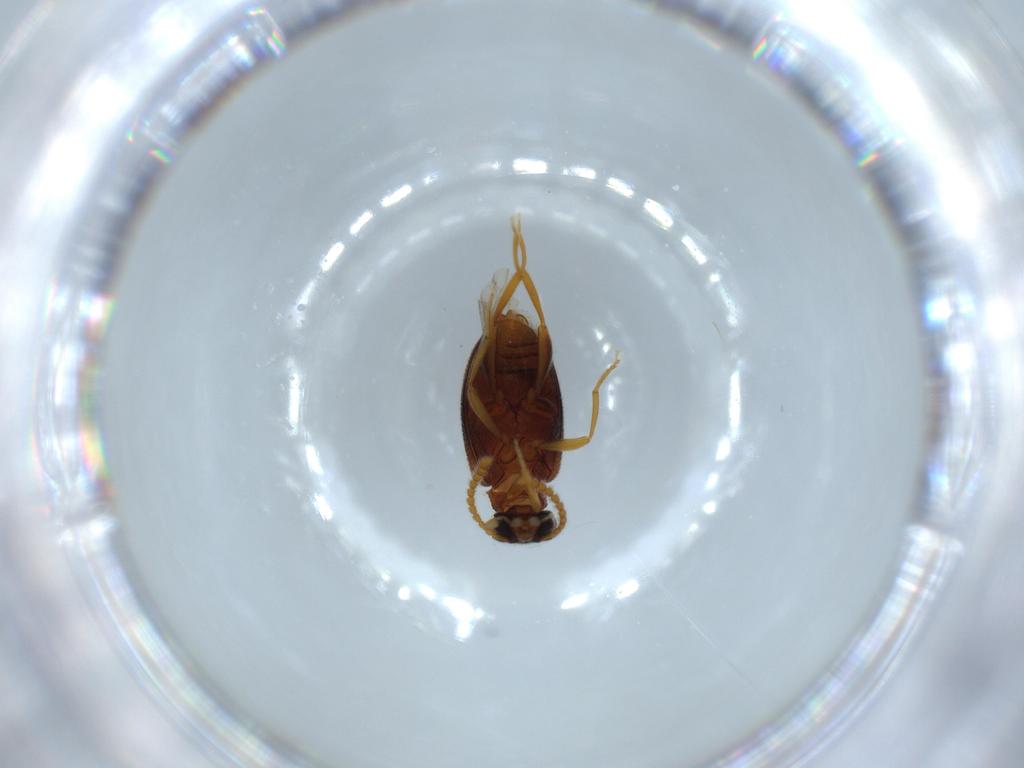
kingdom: Animalia
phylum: Arthropoda
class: Insecta
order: Coleoptera
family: Aderidae
